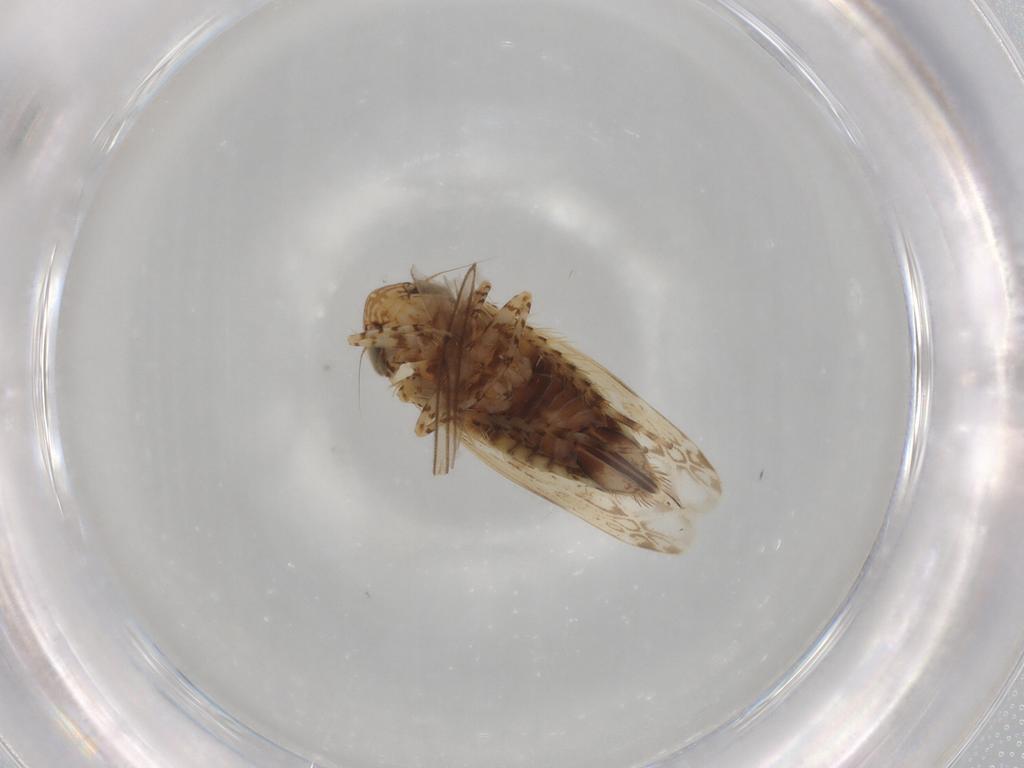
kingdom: Animalia
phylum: Arthropoda
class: Insecta
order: Hemiptera
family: Cicadellidae
